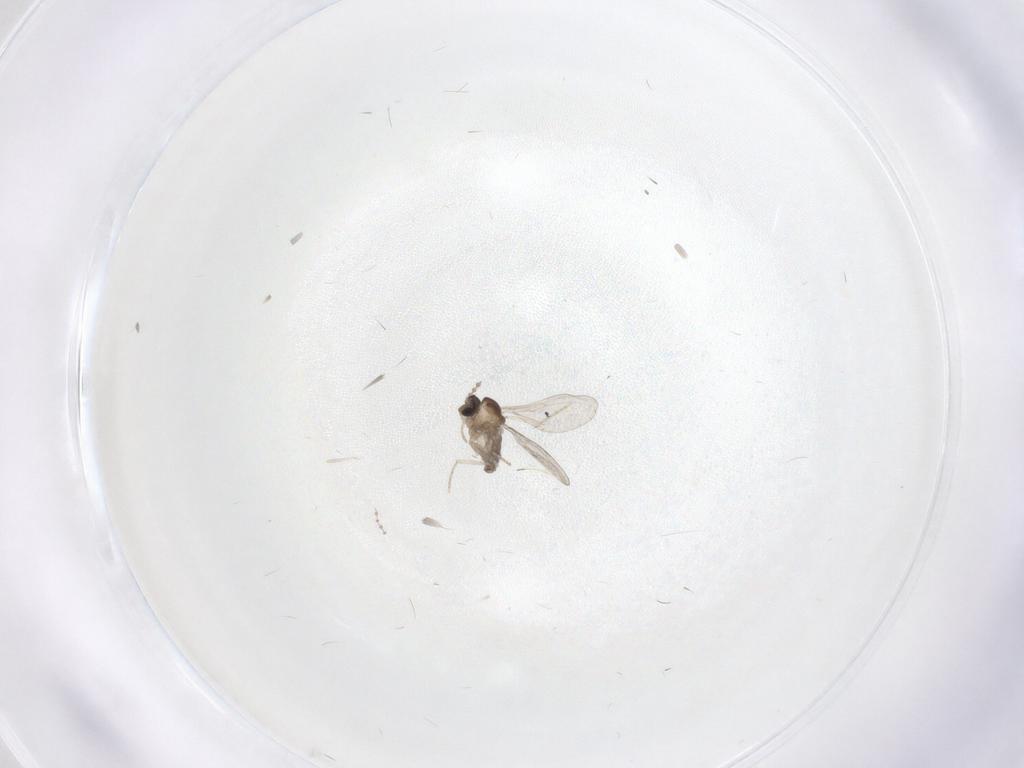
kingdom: Animalia
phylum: Arthropoda
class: Insecta
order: Diptera
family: Cecidomyiidae
